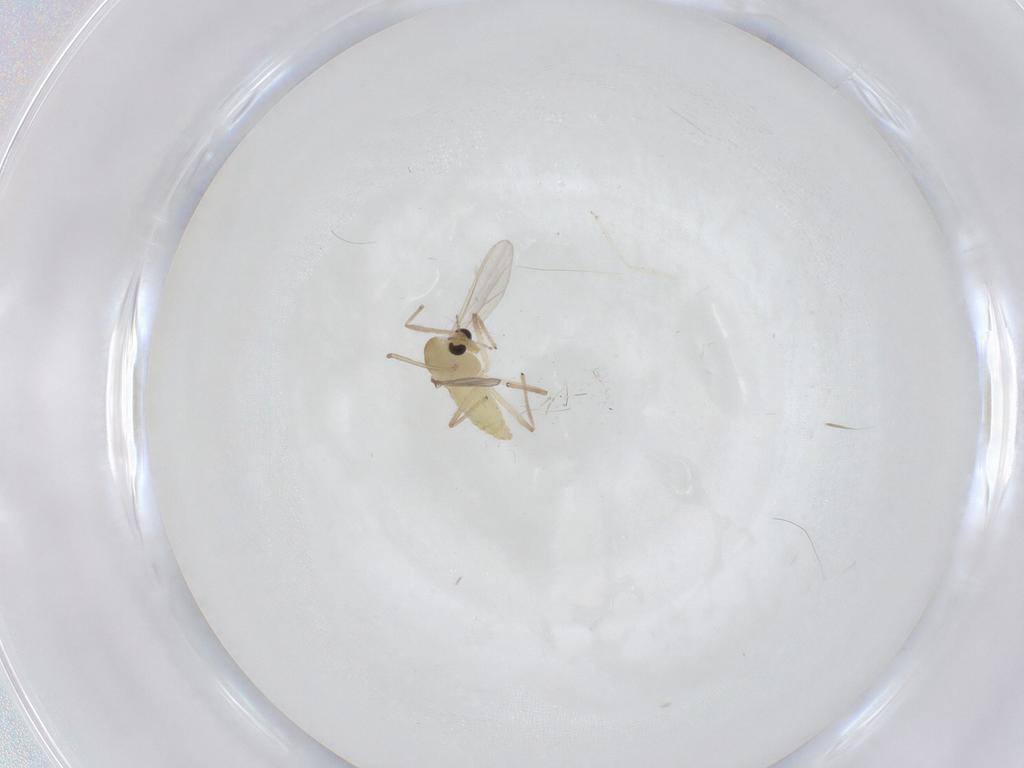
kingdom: Animalia
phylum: Arthropoda
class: Insecta
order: Diptera
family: Chironomidae
